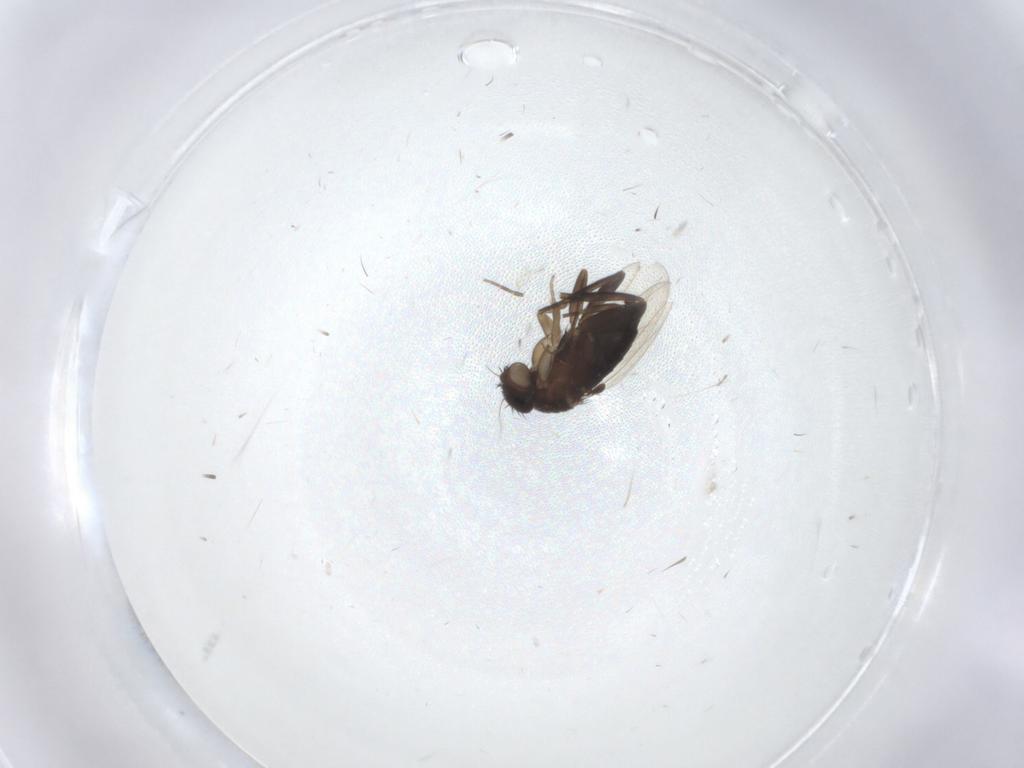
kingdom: Animalia
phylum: Arthropoda
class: Insecta
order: Diptera
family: Phoridae
